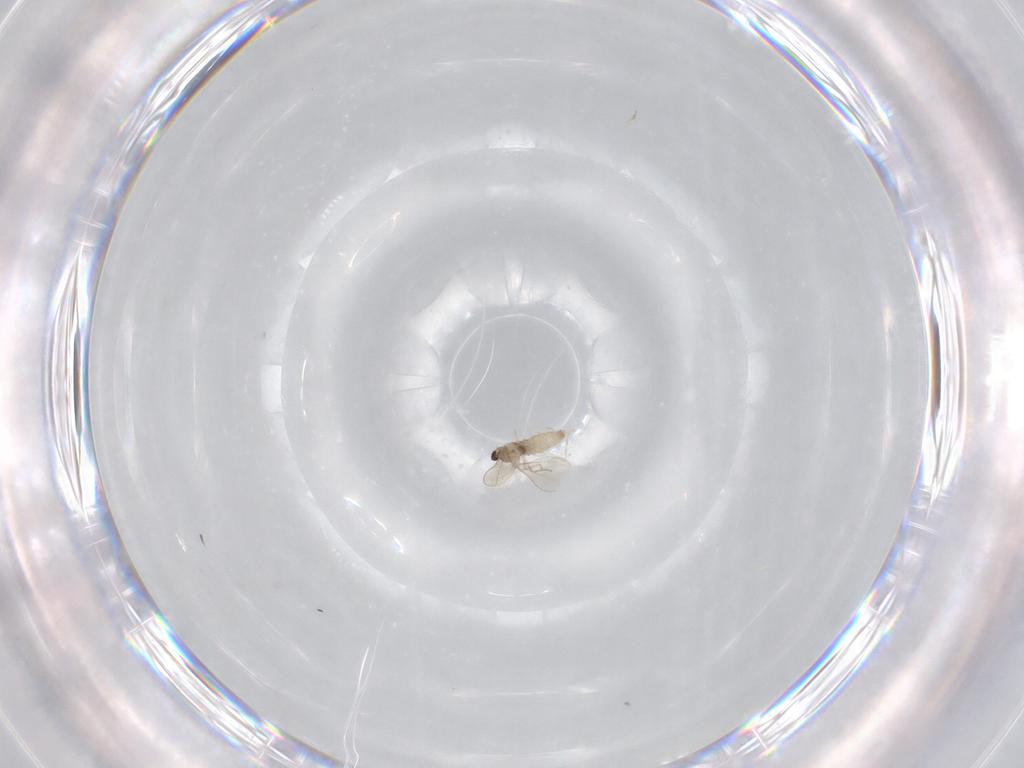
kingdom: Animalia
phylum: Arthropoda
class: Insecta
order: Diptera
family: Cecidomyiidae
